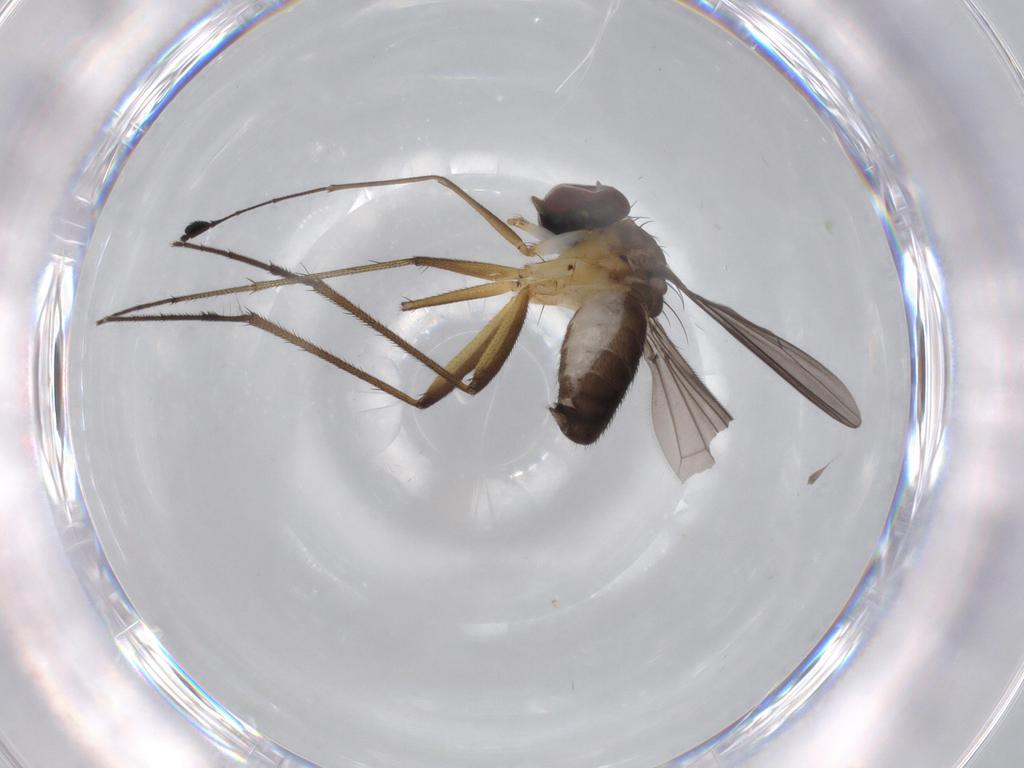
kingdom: Animalia
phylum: Arthropoda
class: Insecta
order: Diptera
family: Dolichopodidae
